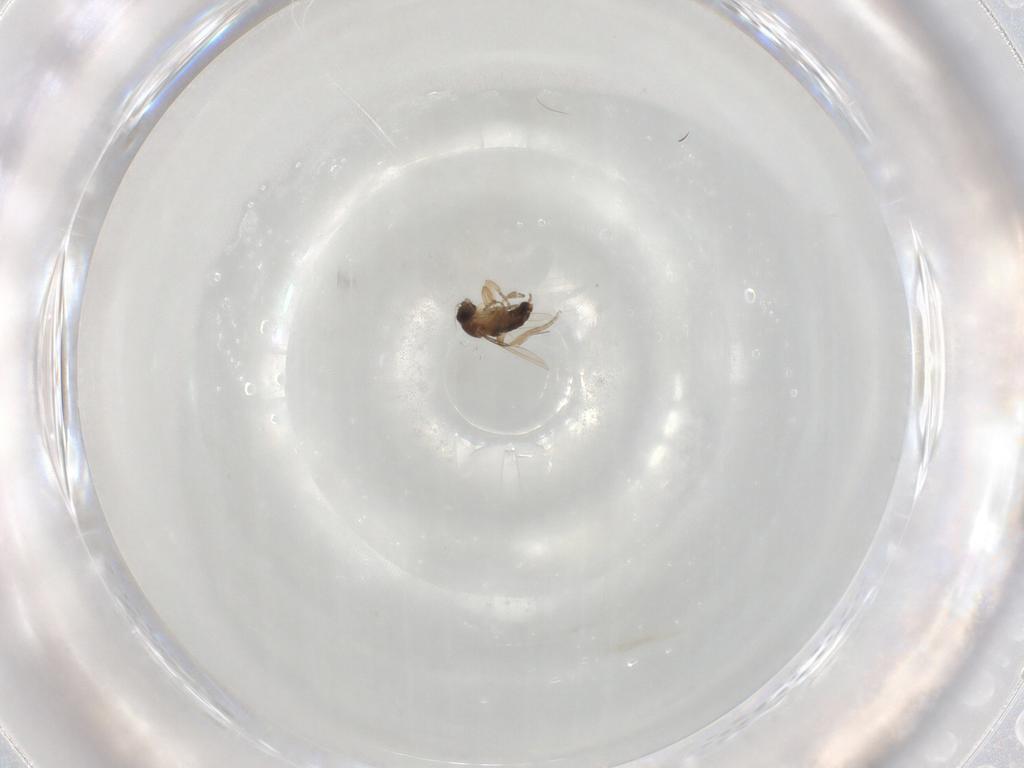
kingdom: Animalia
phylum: Arthropoda
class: Insecta
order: Diptera
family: Phoridae
